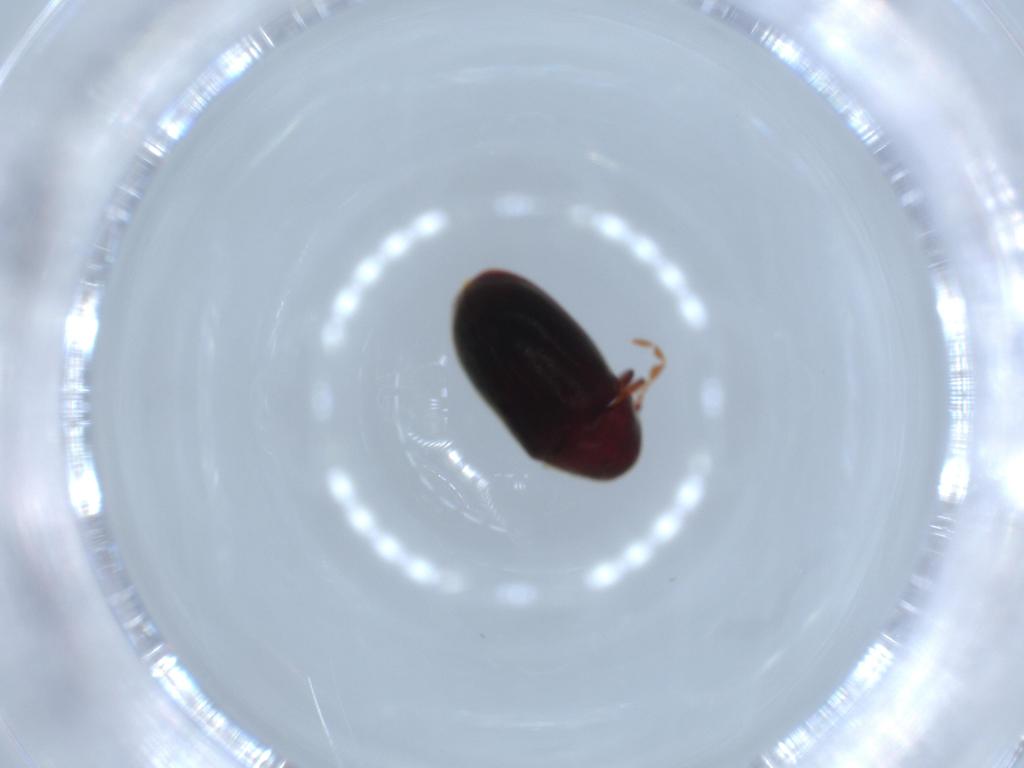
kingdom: Animalia
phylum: Arthropoda
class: Insecta
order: Coleoptera
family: Ptinidae
